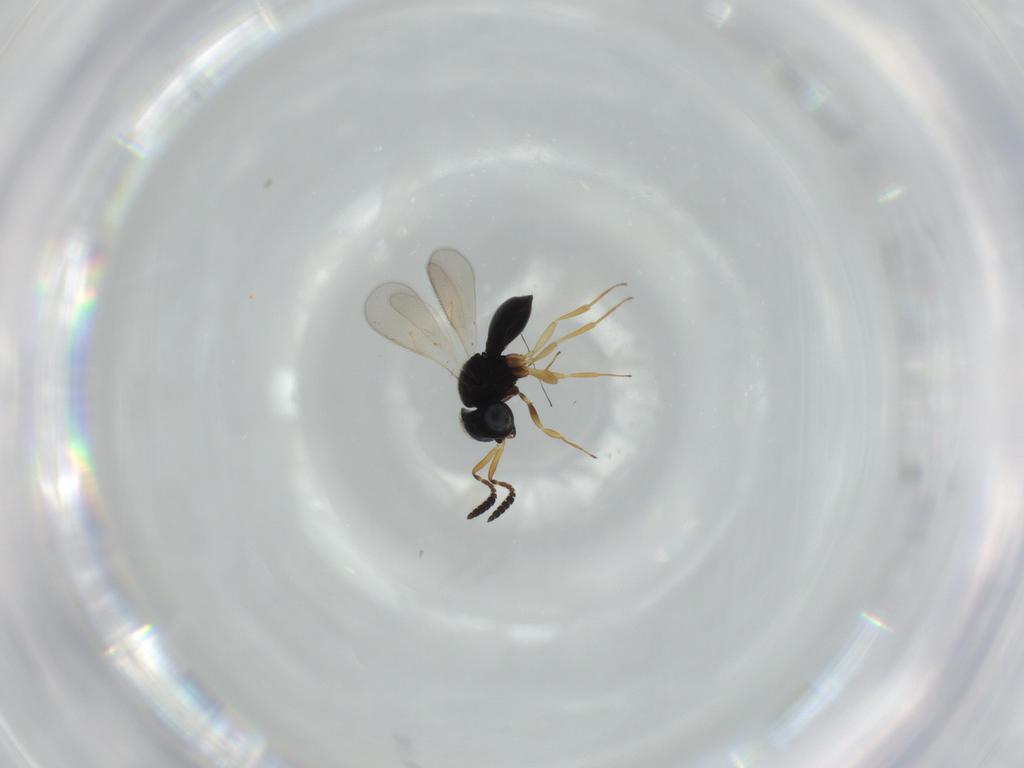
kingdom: Animalia
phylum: Arthropoda
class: Insecta
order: Hymenoptera
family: Scelionidae
